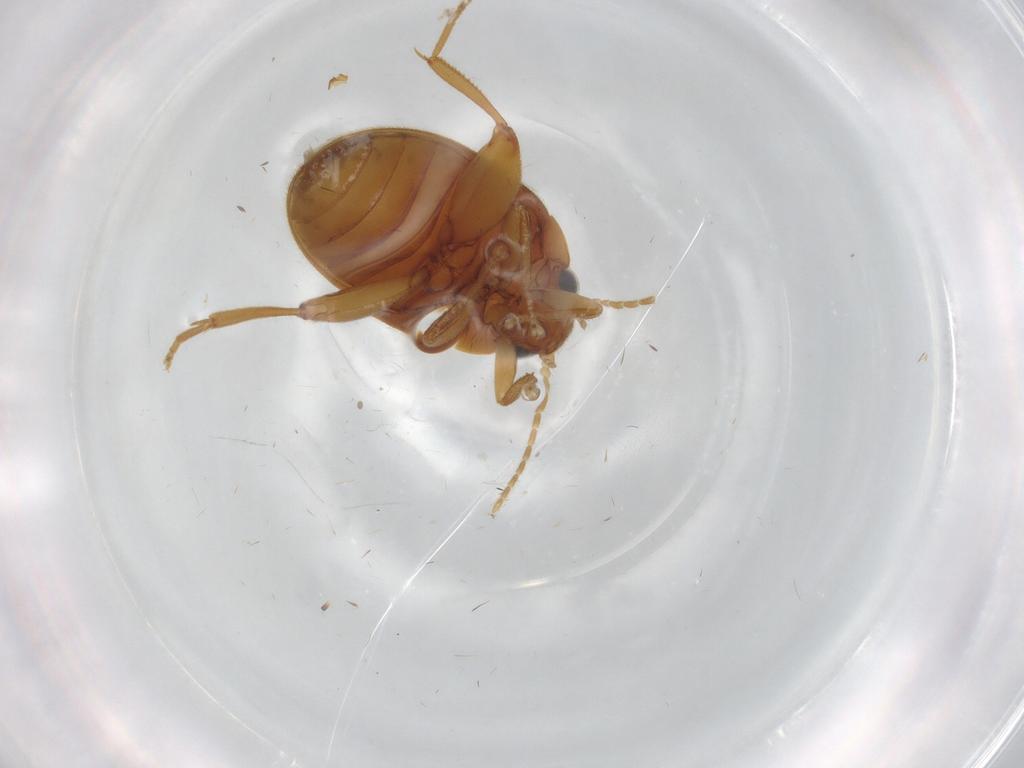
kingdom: Animalia
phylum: Arthropoda
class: Insecta
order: Coleoptera
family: Scirtidae
